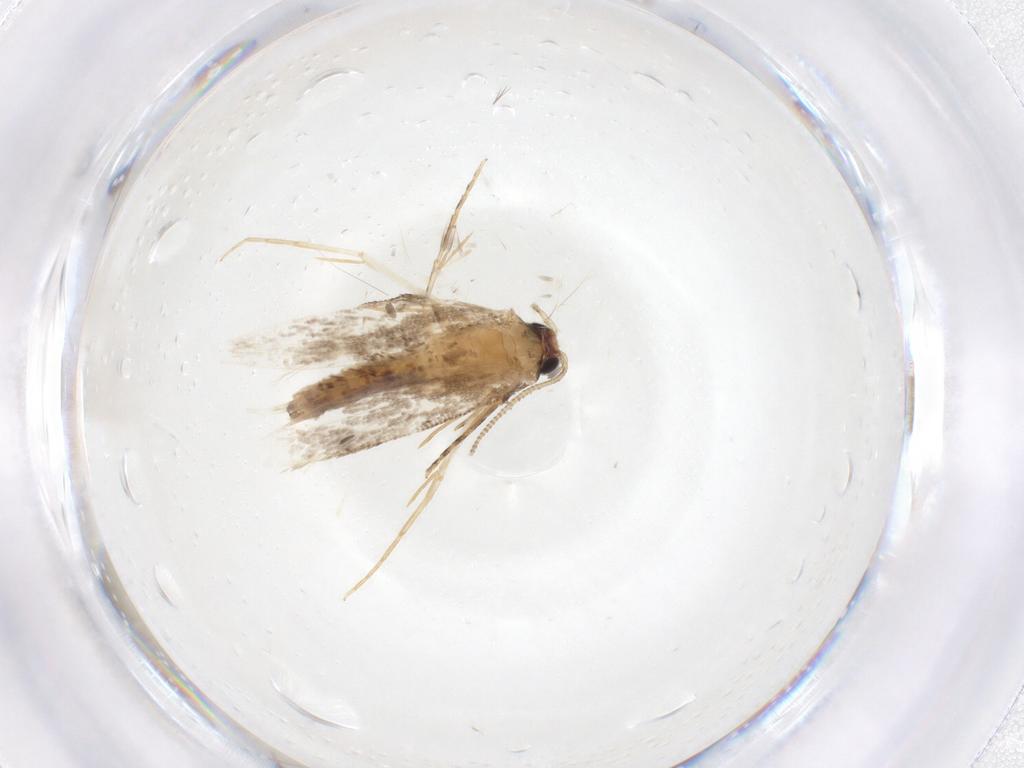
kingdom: Animalia
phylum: Arthropoda
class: Insecta
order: Lepidoptera
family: Tineidae
